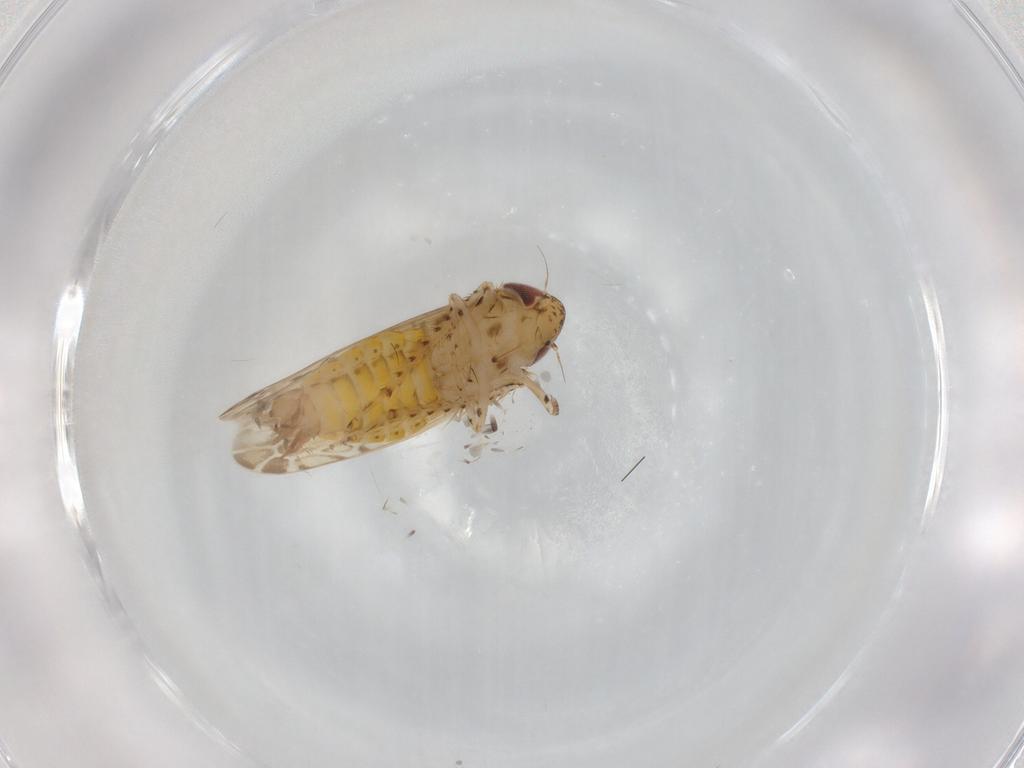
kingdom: Animalia
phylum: Arthropoda
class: Insecta
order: Hemiptera
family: Cicadellidae
